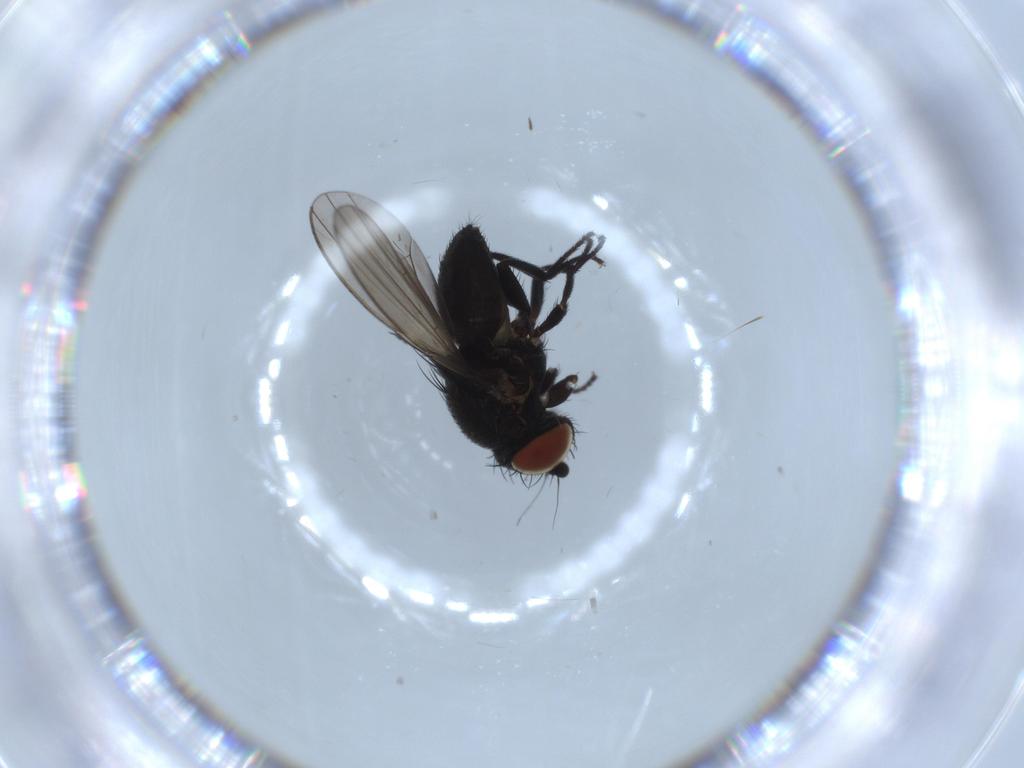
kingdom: Animalia
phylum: Arthropoda
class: Insecta
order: Diptera
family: Milichiidae
